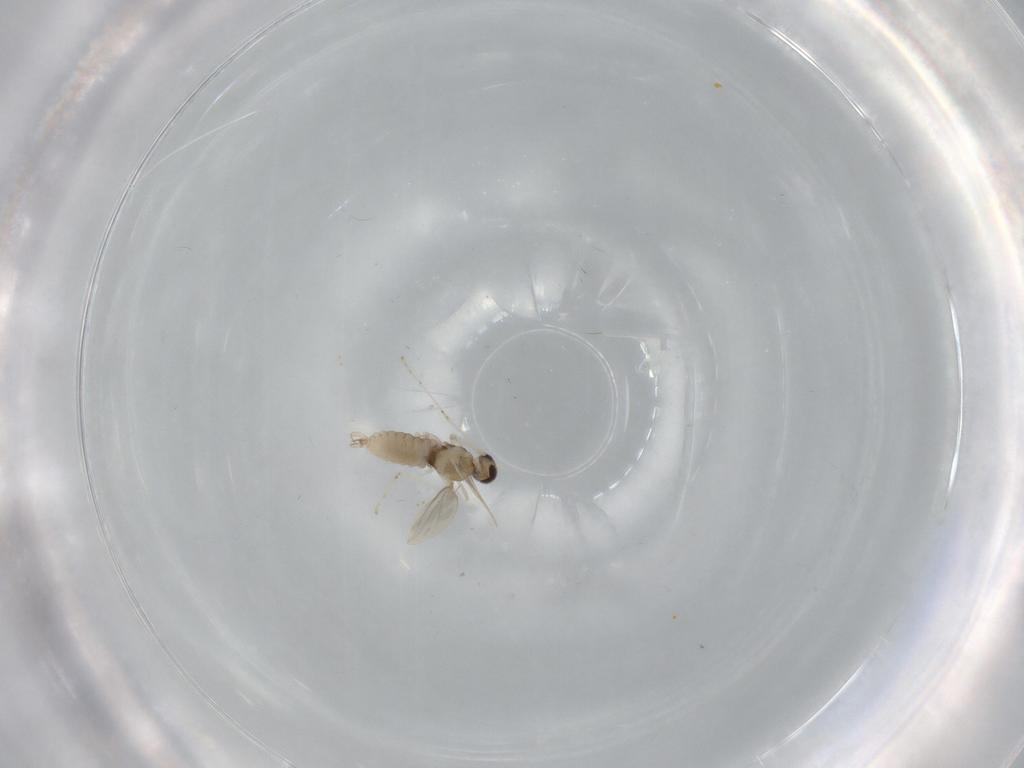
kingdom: Animalia
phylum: Arthropoda
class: Insecta
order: Diptera
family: Cecidomyiidae
